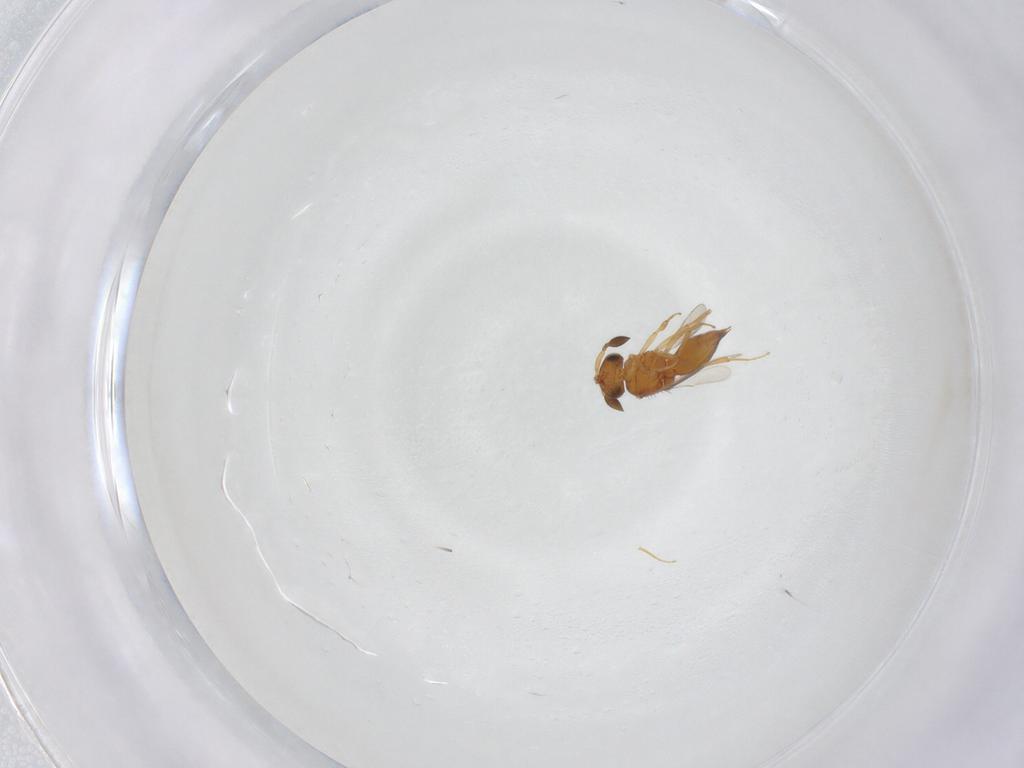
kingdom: Animalia
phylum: Arthropoda
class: Insecta
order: Hymenoptera
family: Scelionidae
